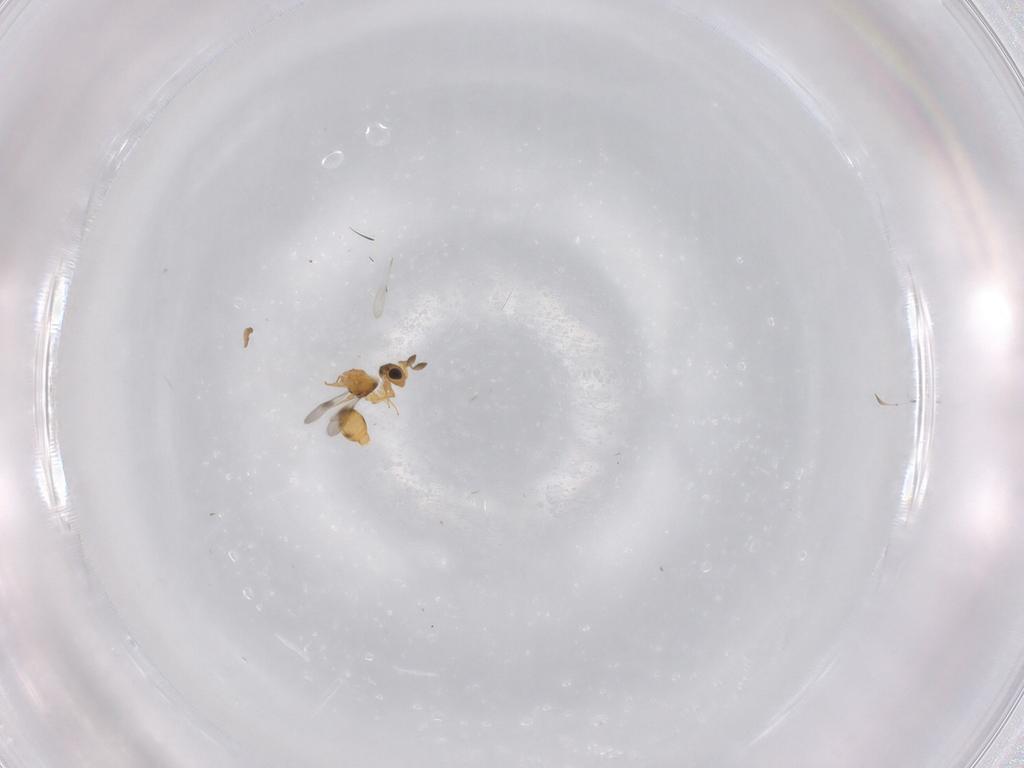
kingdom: Animalia
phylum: Arthropoda
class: Insecta
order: Hymenoptera
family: Scelionidae
